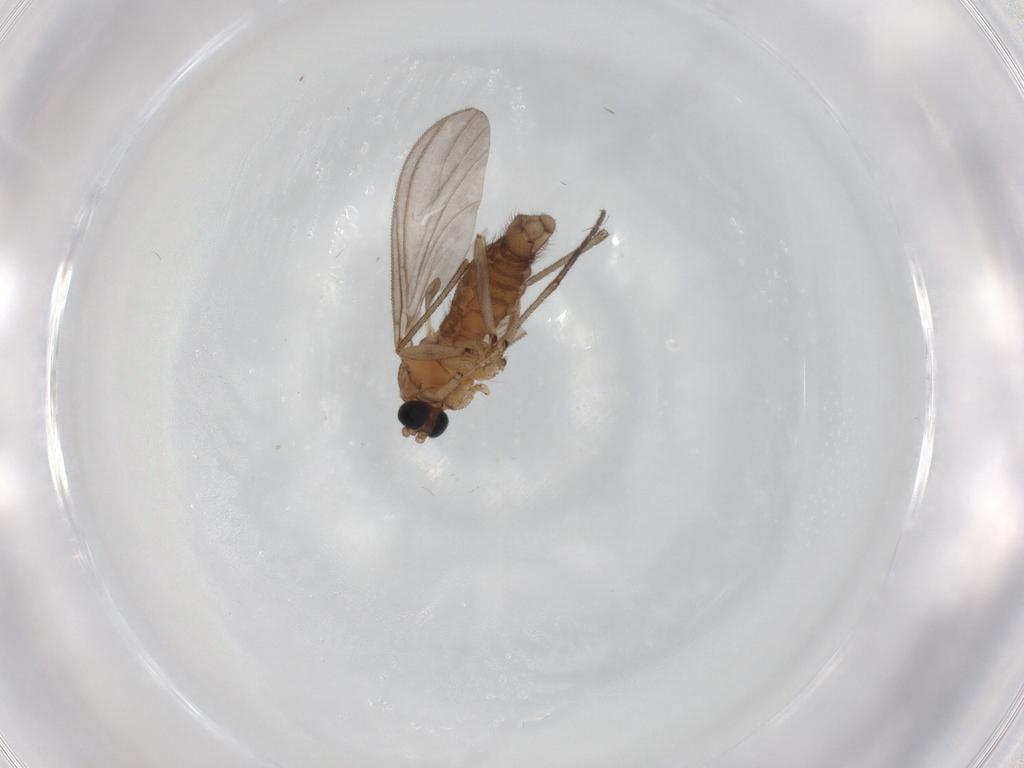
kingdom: Animalia
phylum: Arthropoda
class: Insecta
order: Diptera
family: Sciaridae
